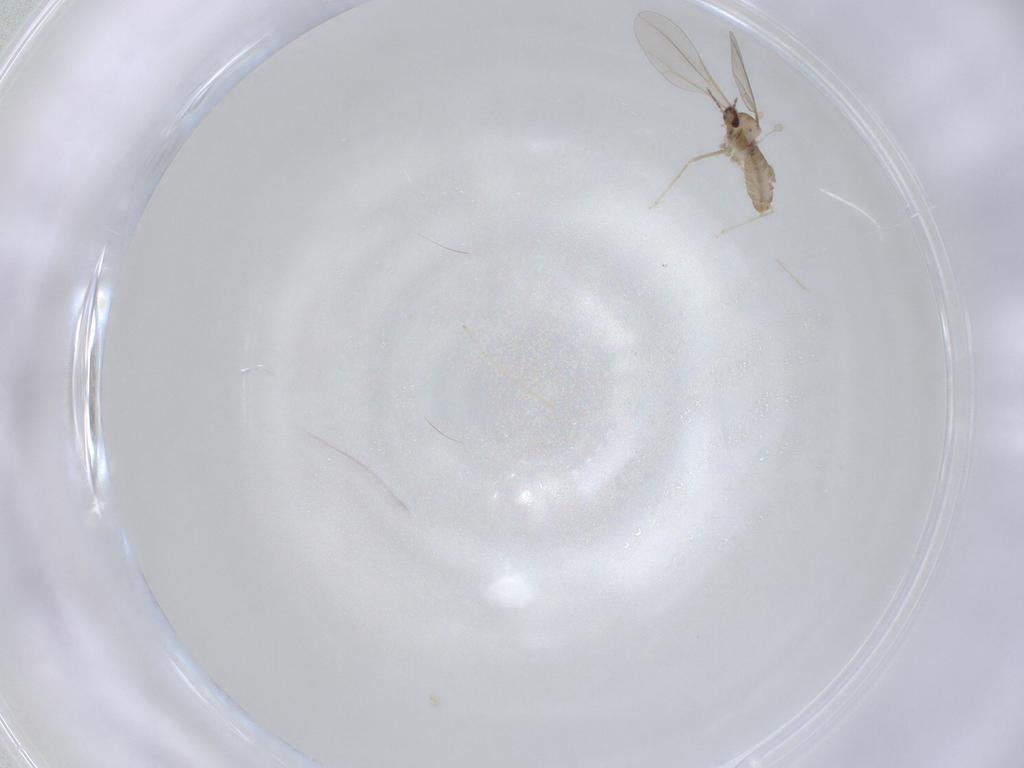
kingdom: Animalia
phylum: Arthropoda
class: Insecta
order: Diptera
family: Cecidomyiidae
